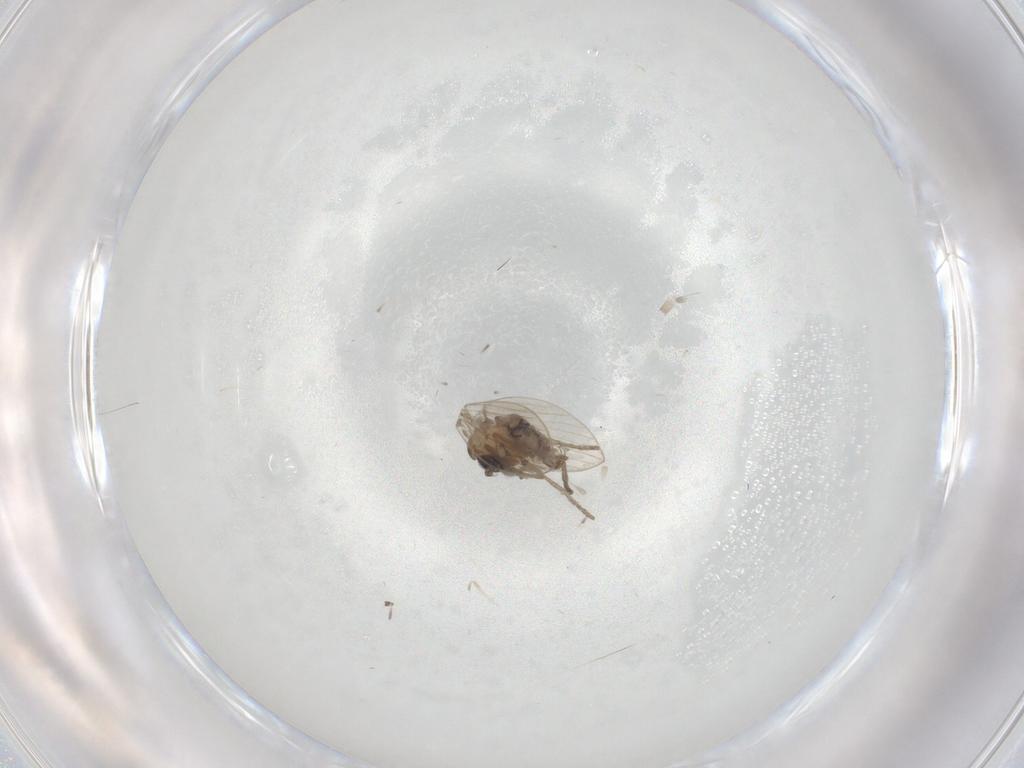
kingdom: Animalia
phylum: Arthropoda
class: Insecta
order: Diptera
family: Psychodidae
